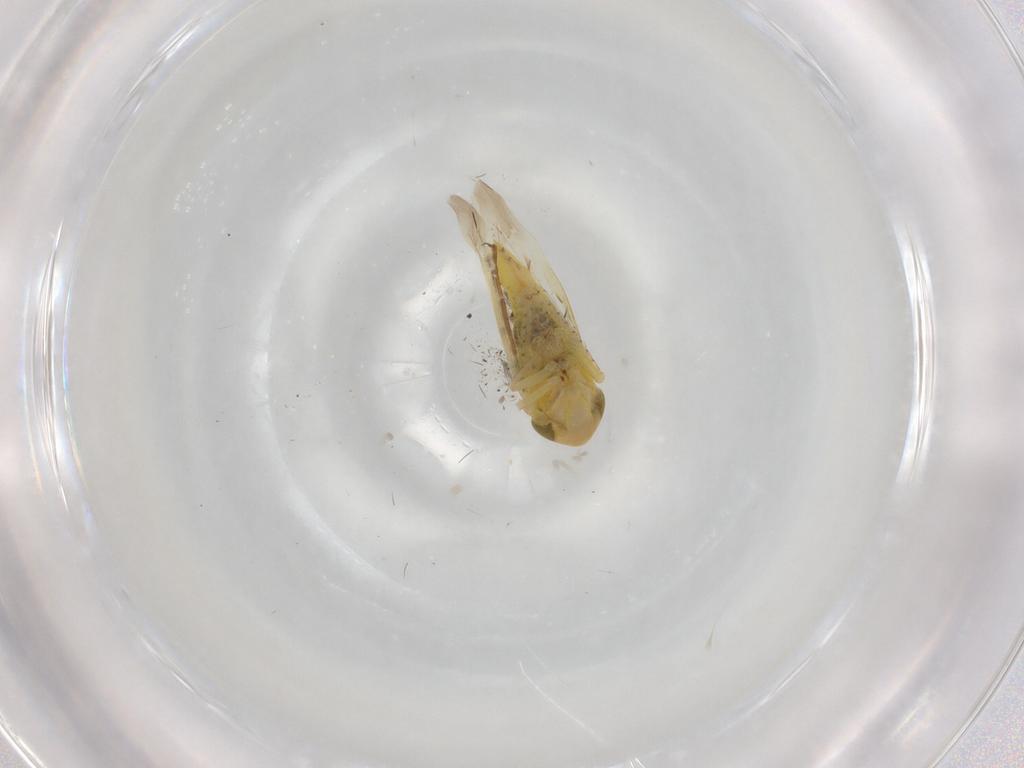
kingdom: Animalia
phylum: Arthropoda
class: Insecta
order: Hemiptera
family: Cicadellidae
